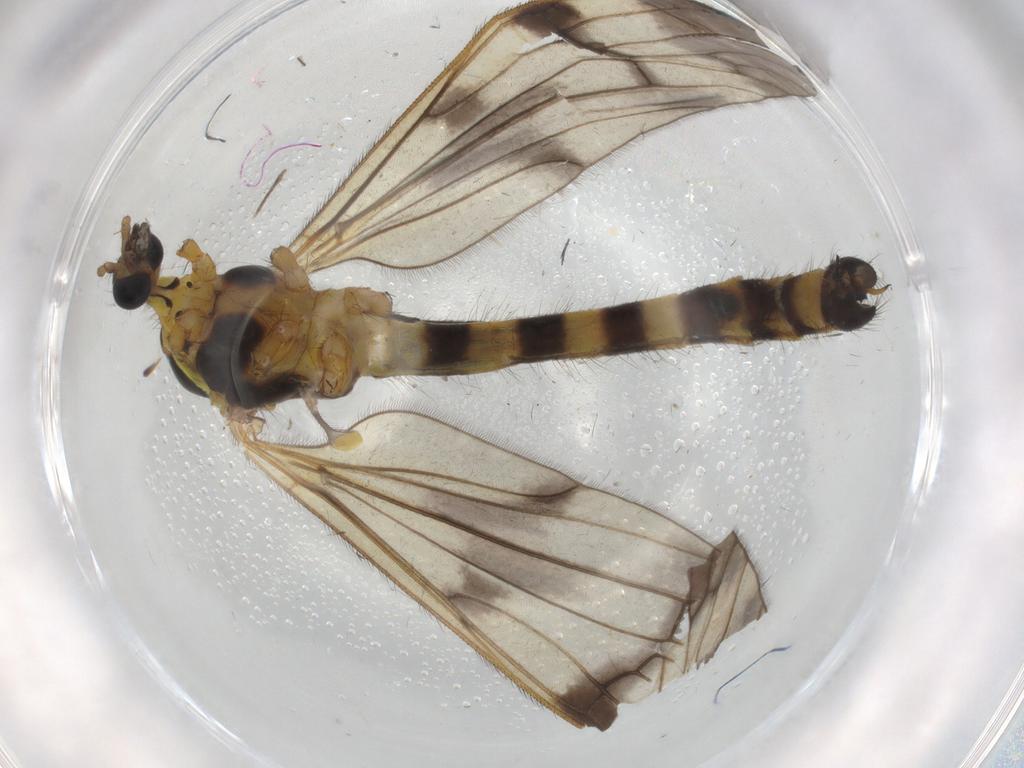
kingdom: Animalia
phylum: Arthropoda
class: Insecta
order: Diptera
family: Limoniidae
